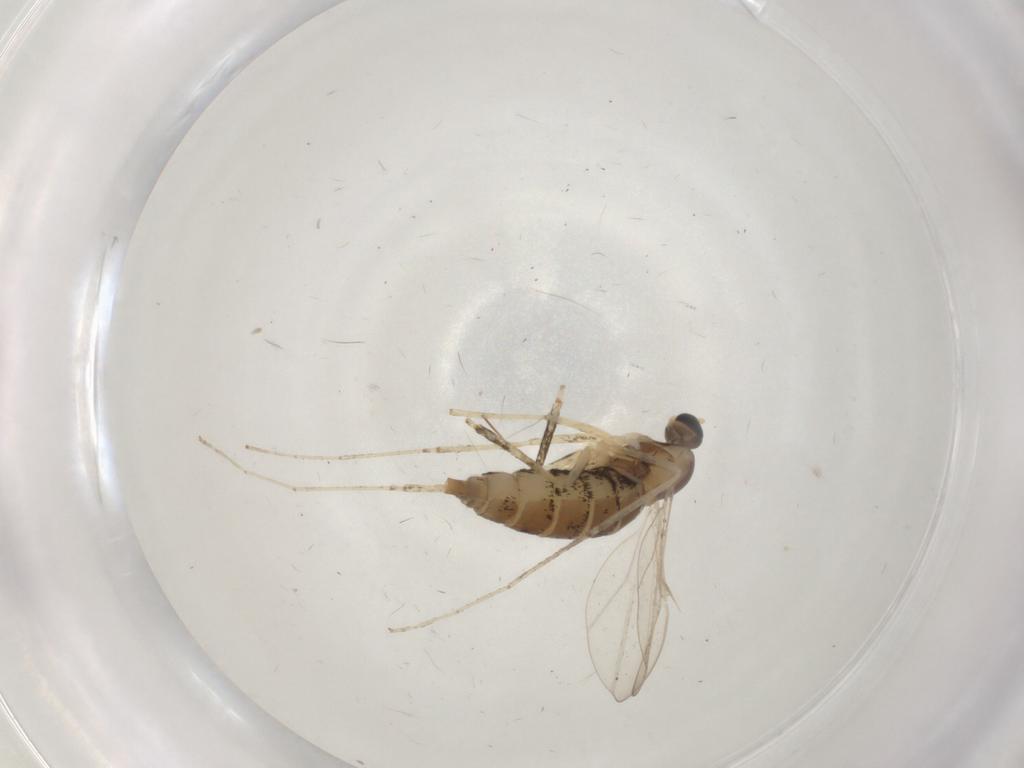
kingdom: Animalia
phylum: Arthropoda
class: Insecta
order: Diptera
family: Cecidomyiidae
